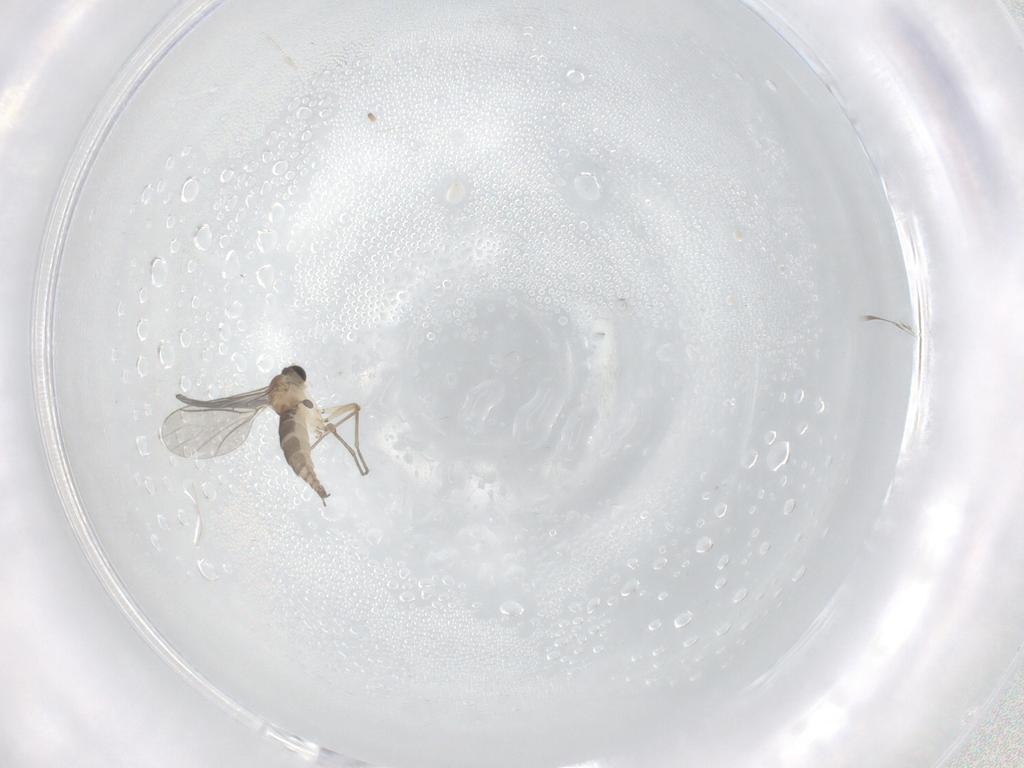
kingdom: Animalia
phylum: Arthropoda
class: Insecta
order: Diptera
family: Sciaridae
